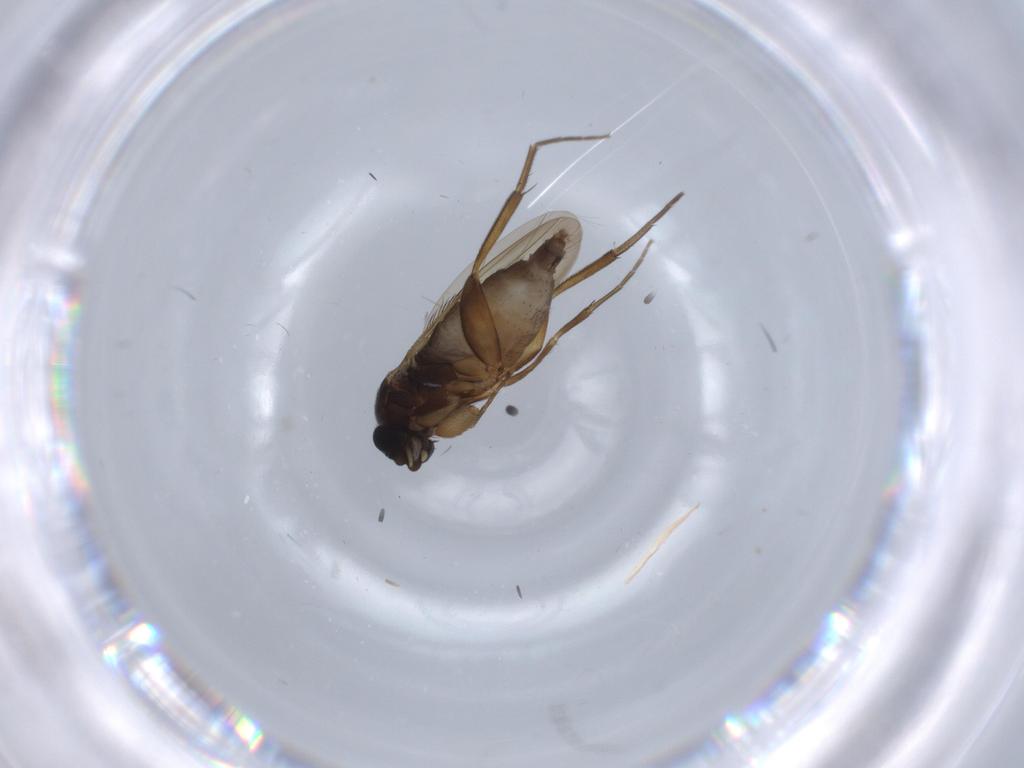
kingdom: Animalia
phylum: Arthropoda
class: Insecta
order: Diptera
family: Phoridae
